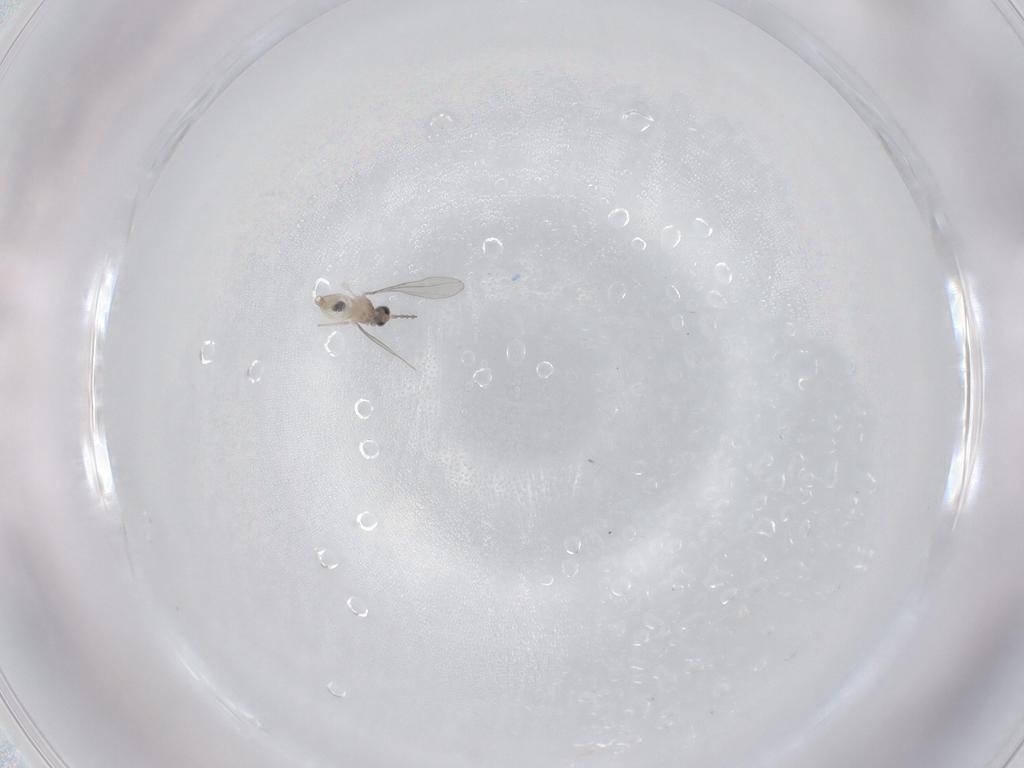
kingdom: Animalia
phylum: Arthropoda
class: Insecta
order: Diptera
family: Cecidomyiidae
